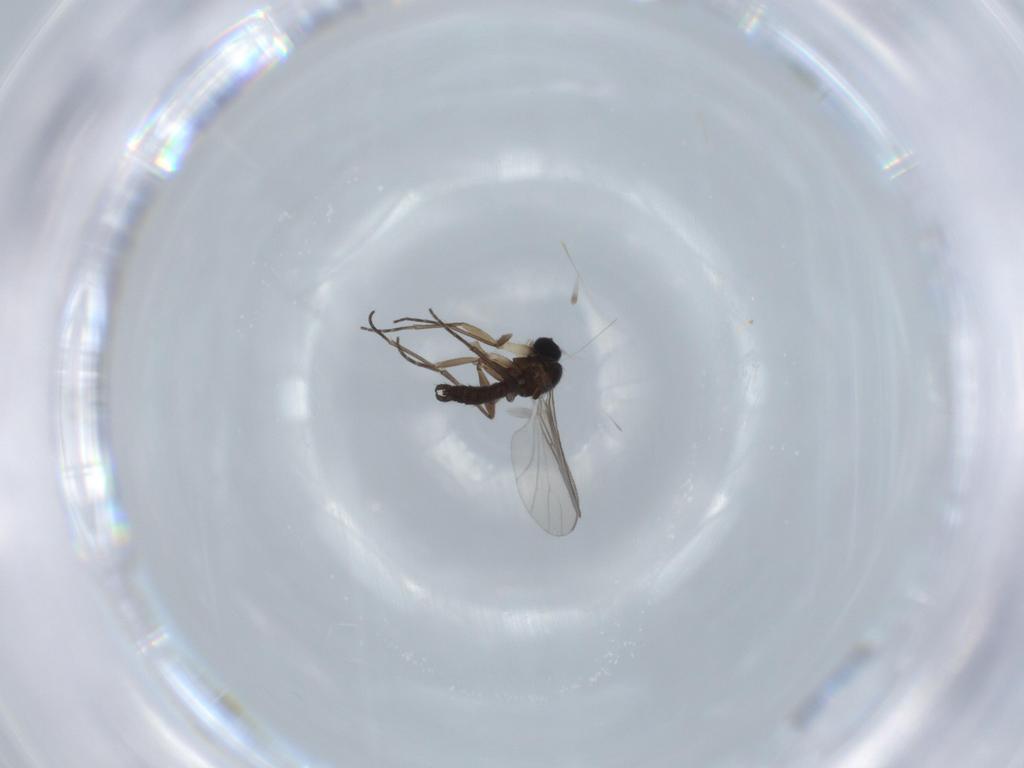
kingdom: Animalia
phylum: Arthropoda
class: Insecta
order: Diptera
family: Sciaridae
